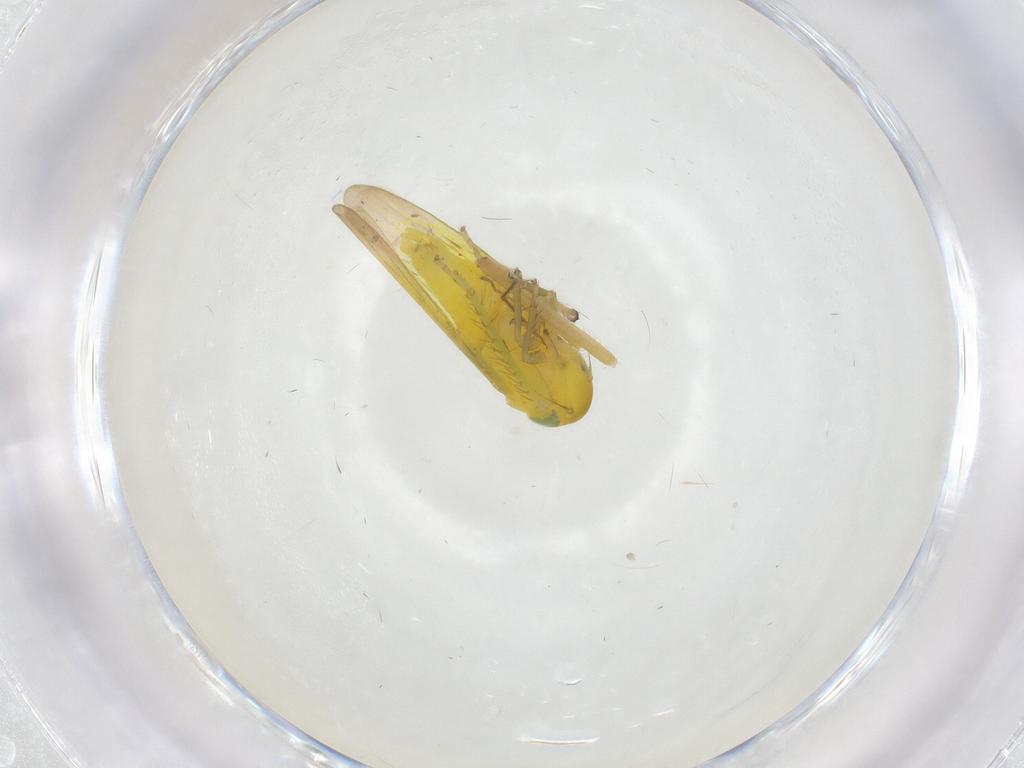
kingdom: Animalia
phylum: Arthropoda
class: Insecta
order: Hemiptera
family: Cicadellidae
